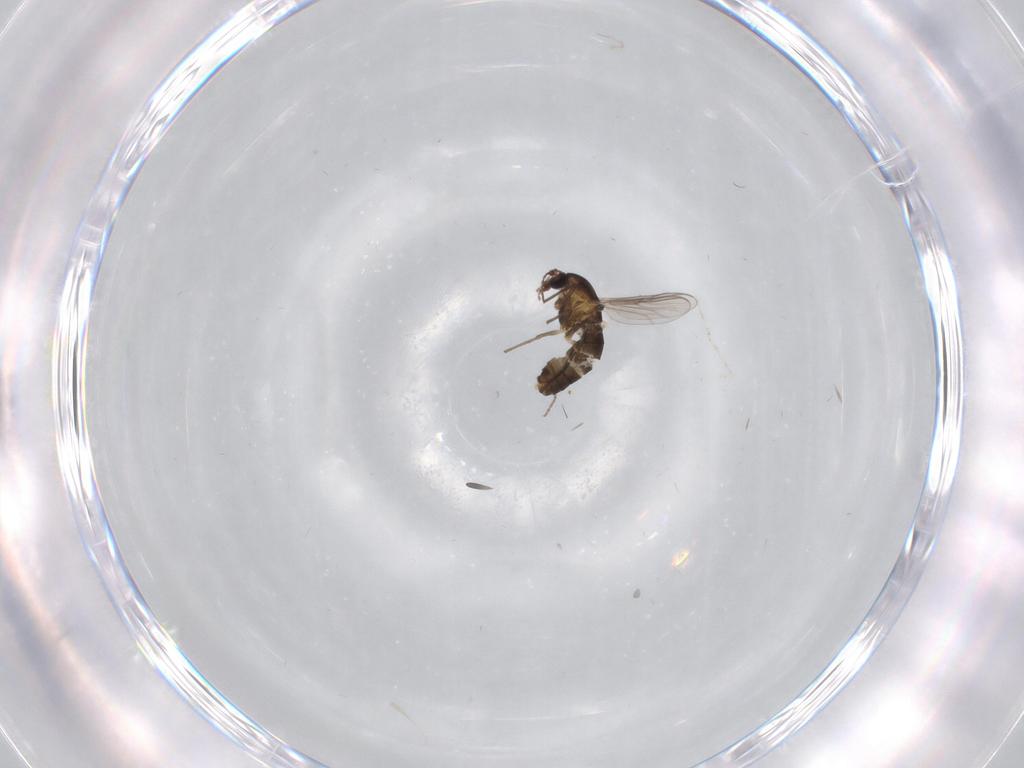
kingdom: Animalia
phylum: Arthropoda
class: Insecta
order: Diptera
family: Chironomidae
